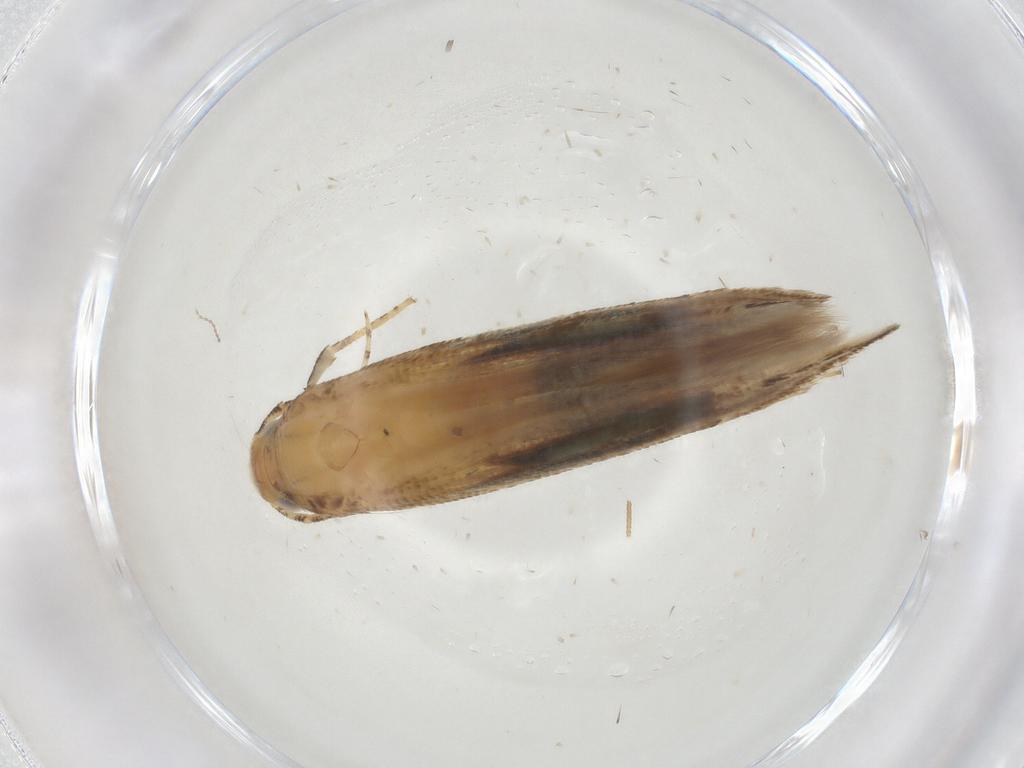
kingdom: Animalia
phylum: Arthropoda
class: Insecta
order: Lepidoptera
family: Momphidae
